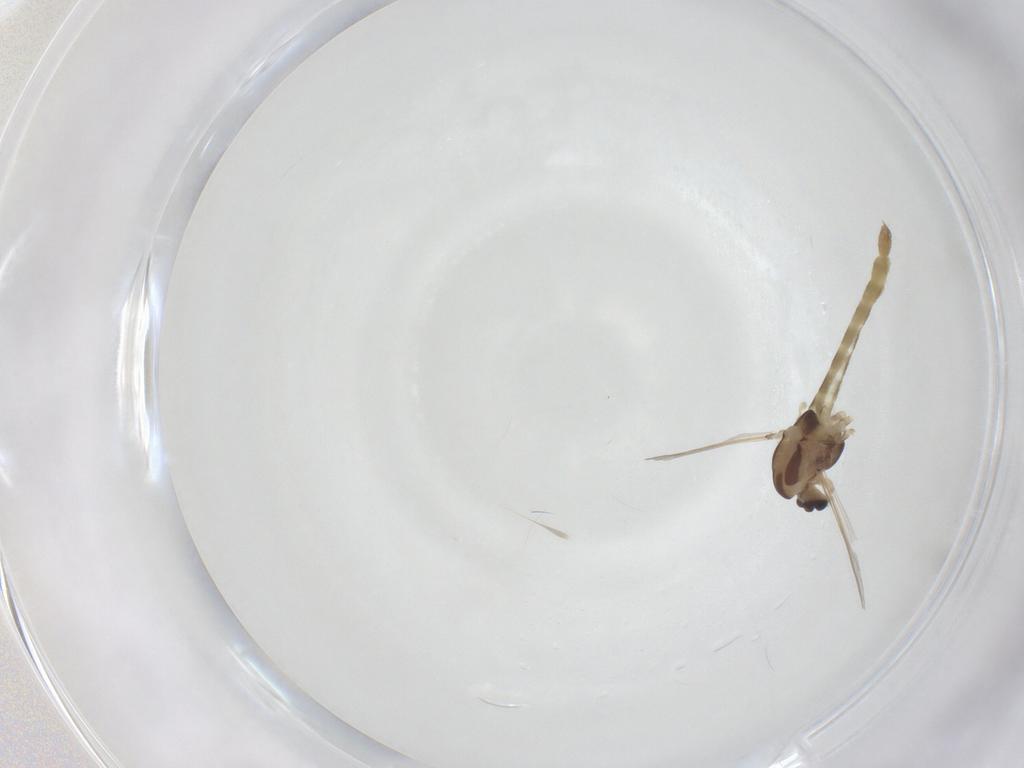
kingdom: Animalia
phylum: Arthropoda
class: Insecta
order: Diptera
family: Chironomidae
